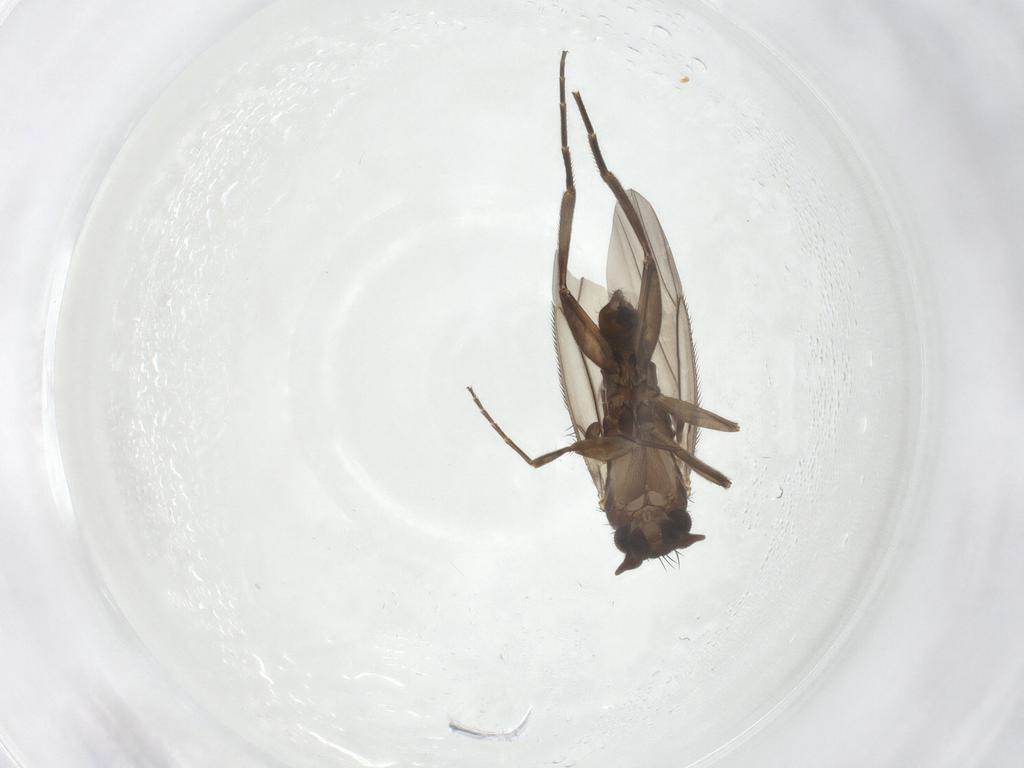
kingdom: Animalia
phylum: Arthropoda
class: Insecta
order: Diptera
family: Phoridae
